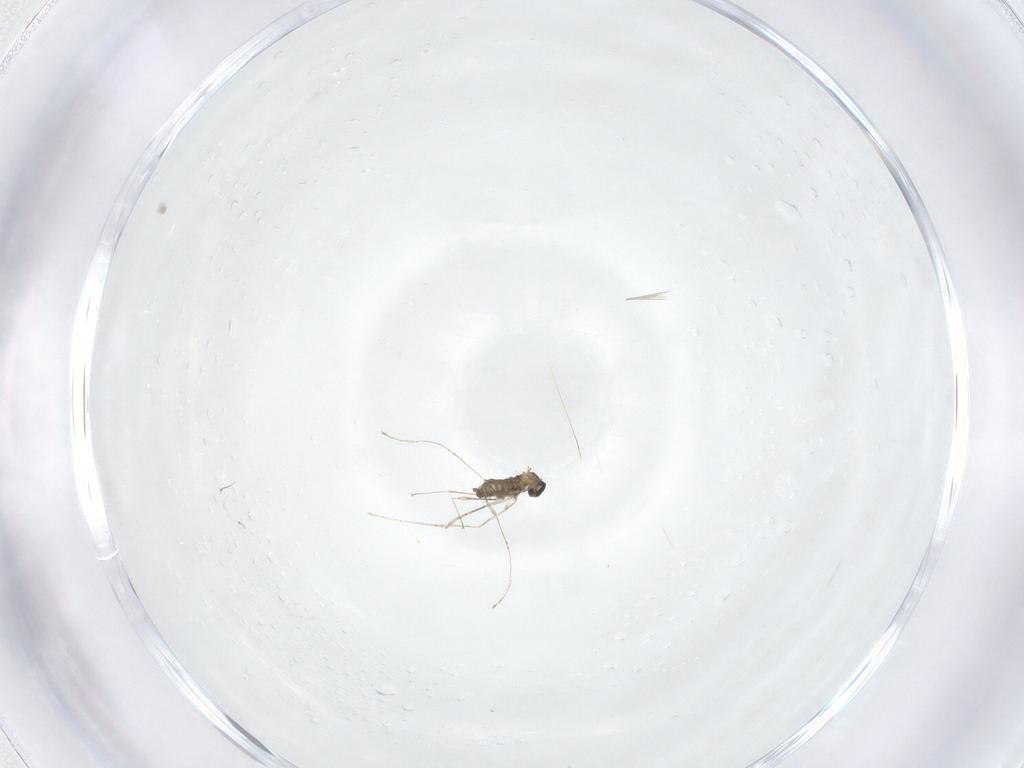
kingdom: Animalia
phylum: Arthropoda
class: Insecta
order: Diptera
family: Cecidomyiidae
